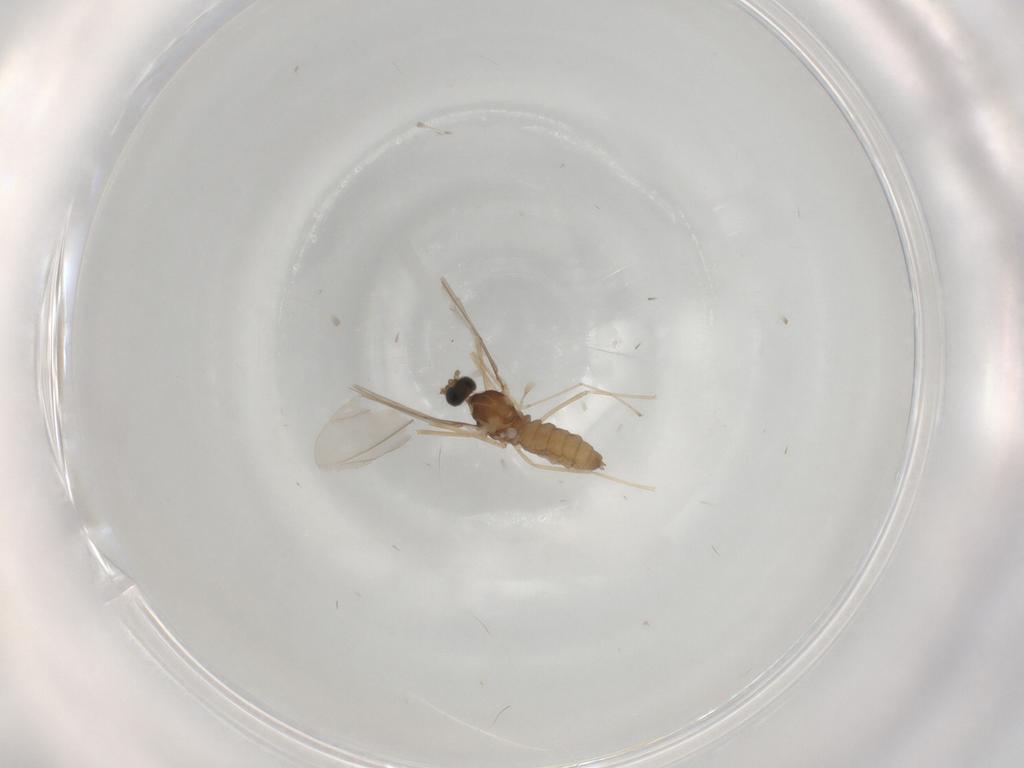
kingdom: Animalia
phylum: Arthropoda
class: Insecta
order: Diptera
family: Cecidomyiidae
